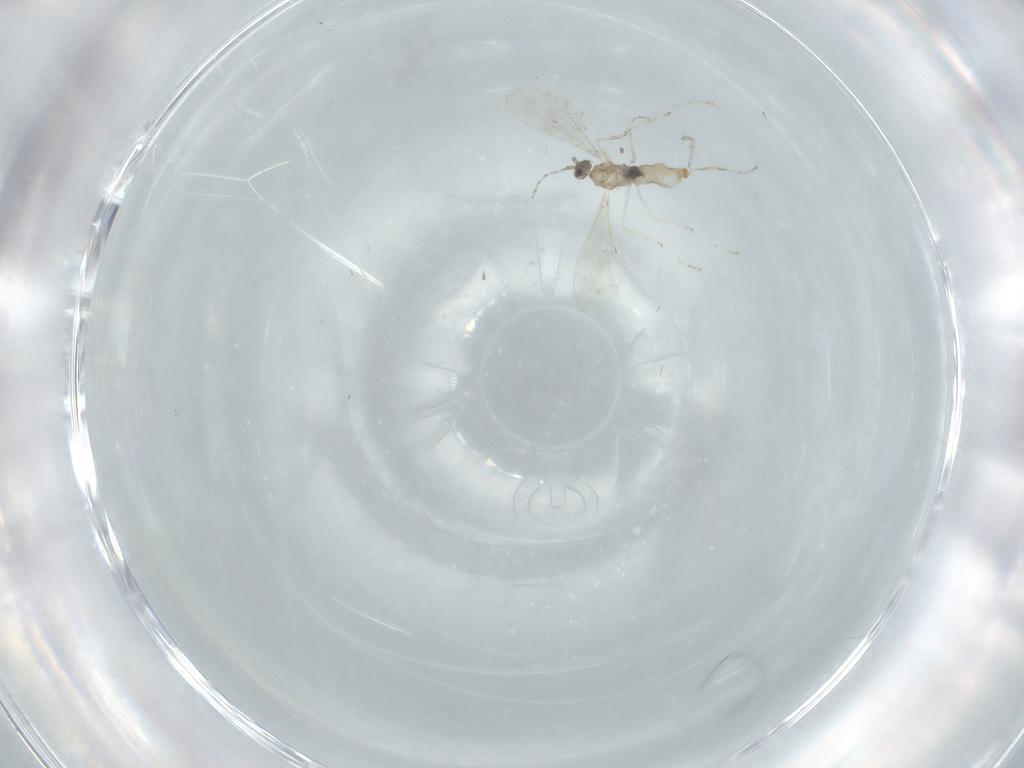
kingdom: Animalia
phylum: Arthropoda
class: Insecta
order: Diptera
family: Cecidomyiidae
